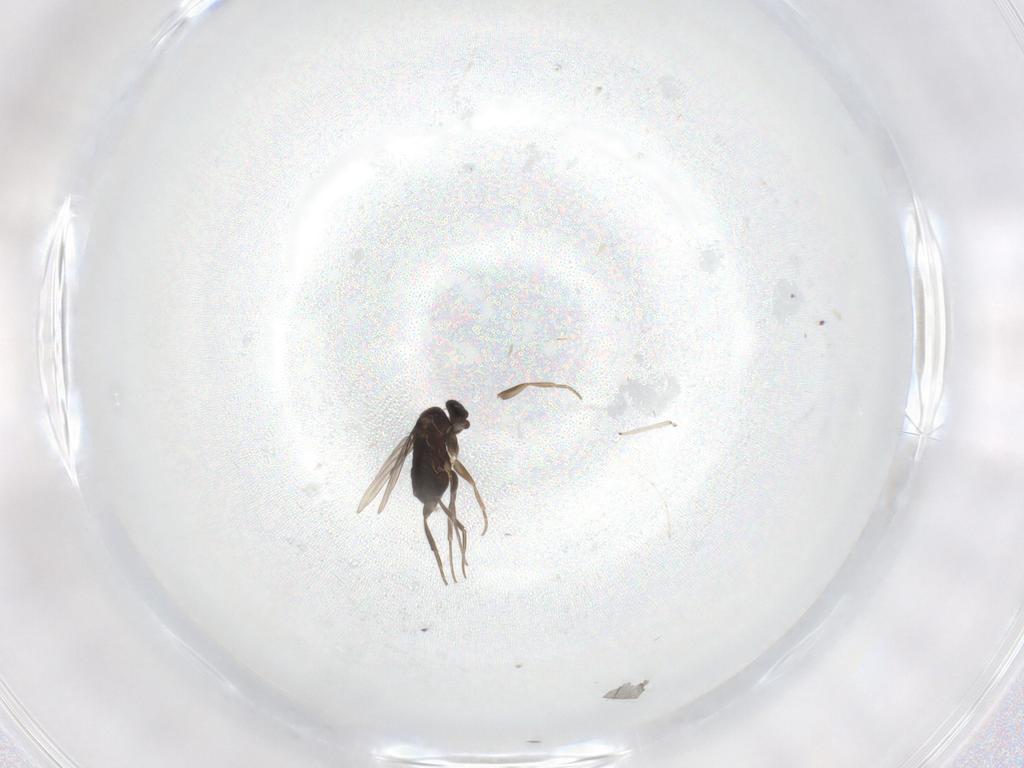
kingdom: Animalia
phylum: Arthropoda
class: Insecta
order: Diptera
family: Phoridae
